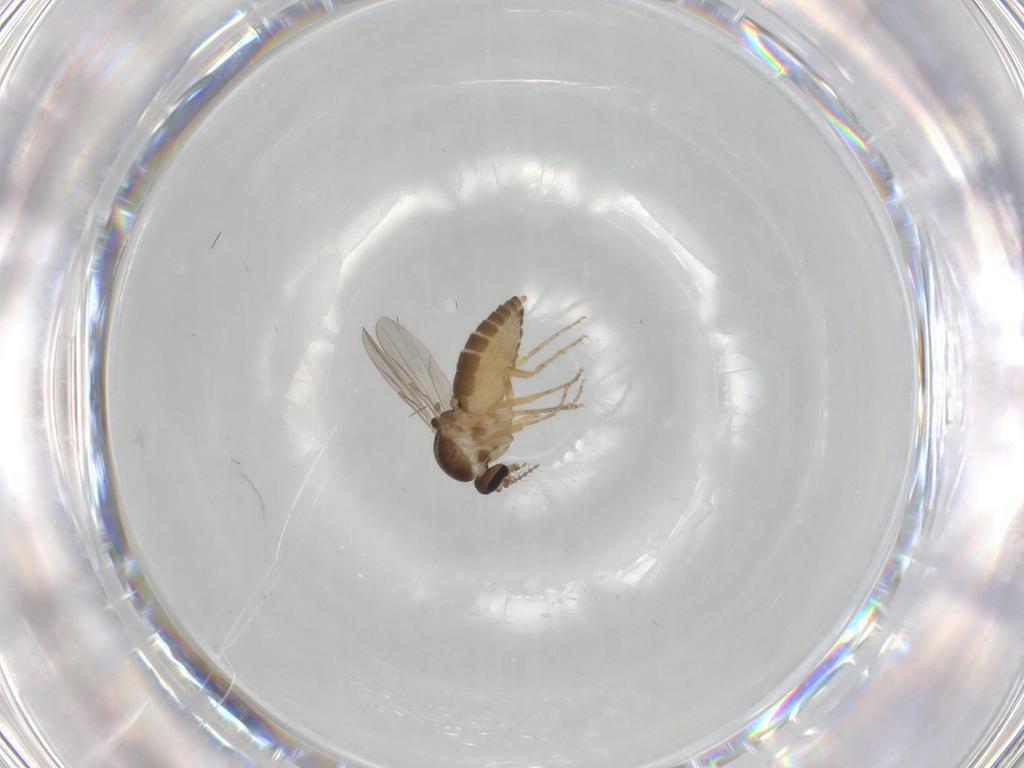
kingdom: Animalia
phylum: Arthropoda
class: Insecta
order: Diptera
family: Ceratopogonidae
